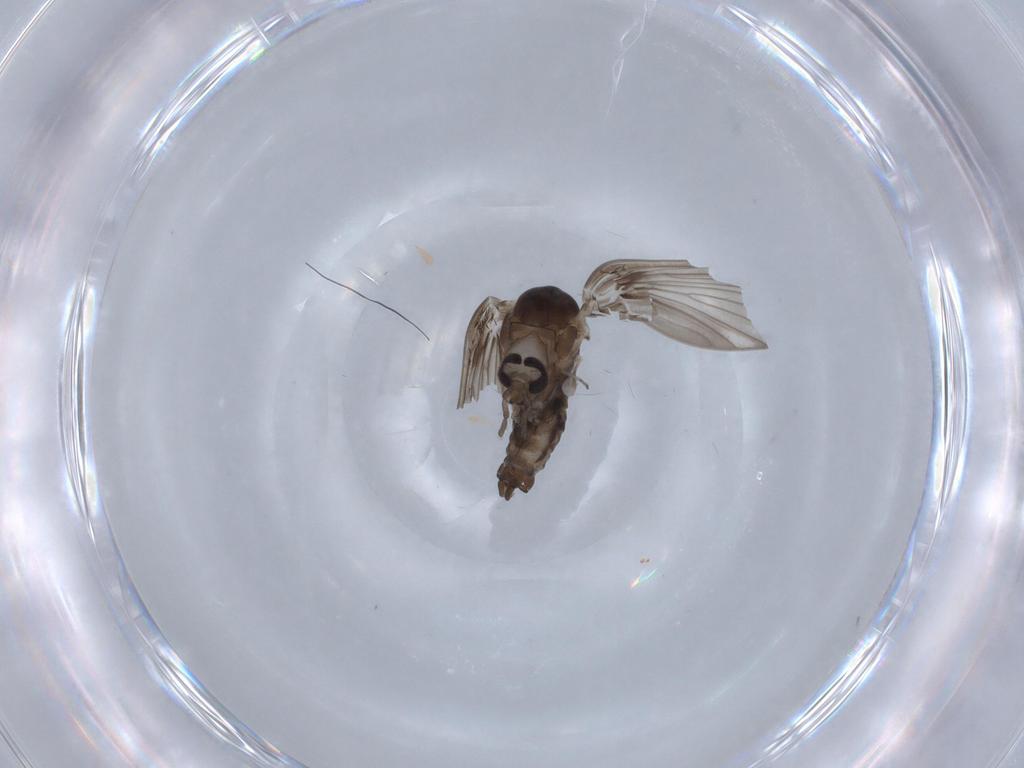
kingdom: Animalia
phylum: Arthropoda
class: Insecta
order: Diptera
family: Psychodidae
